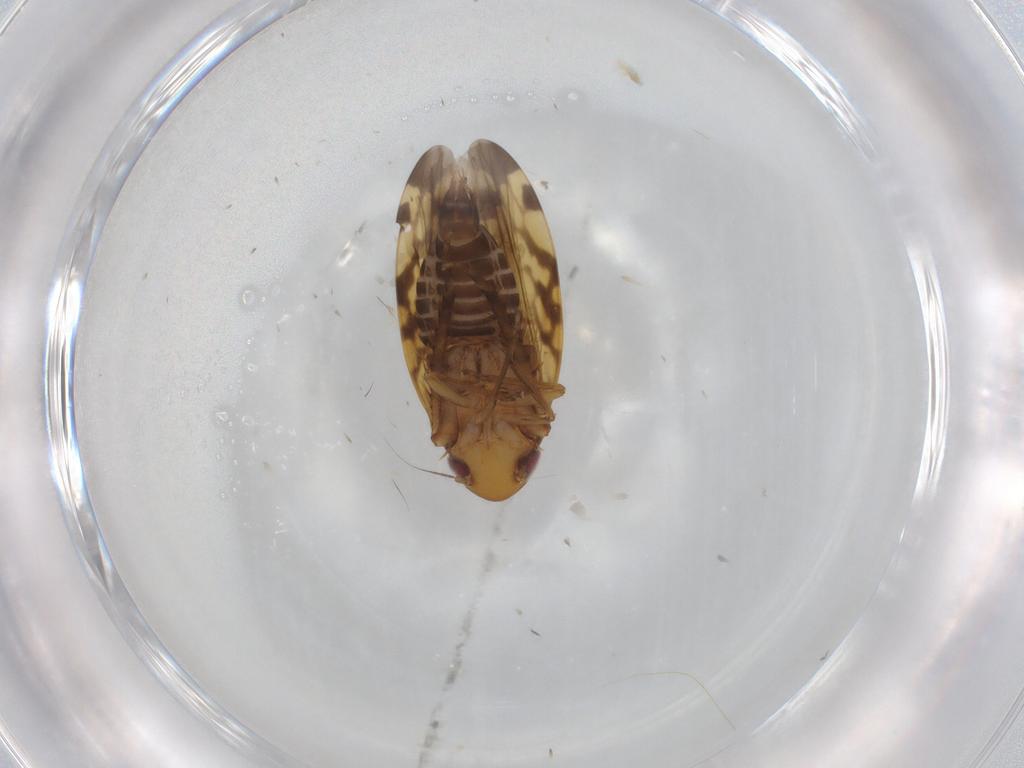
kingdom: Animalia
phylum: Arthropoda
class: Insecta
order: Hemiptera
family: Cicadellidae
